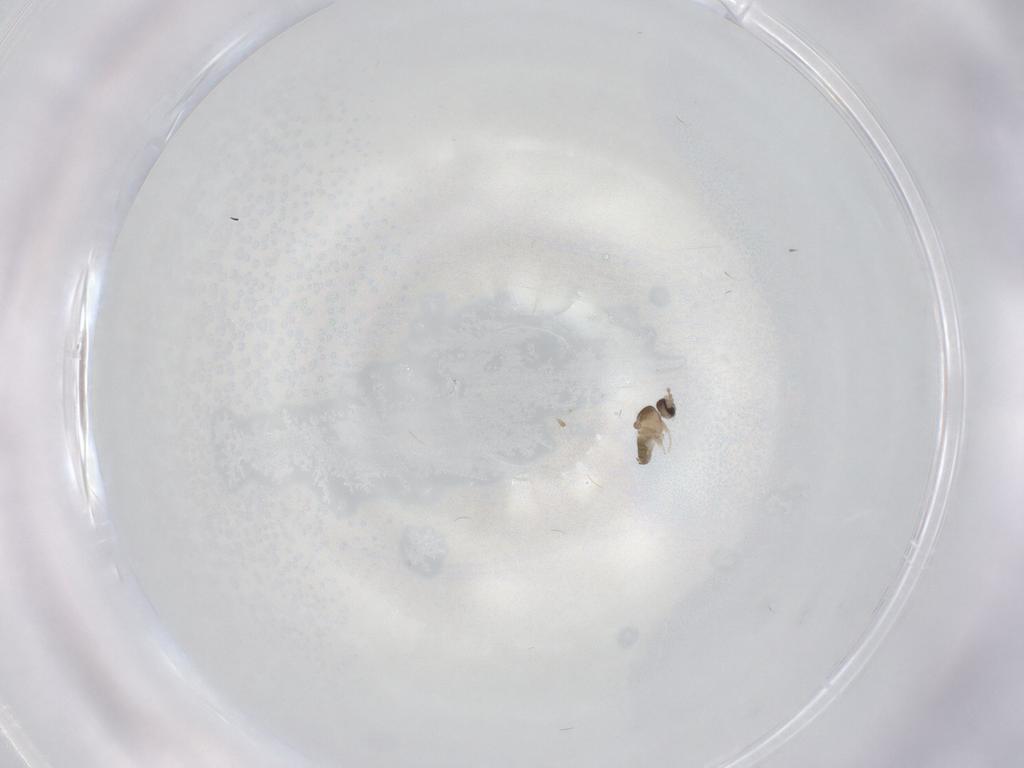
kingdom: Animalia
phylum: Arthropoda
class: Insecta
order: Diptera
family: Cecidomyiidae
